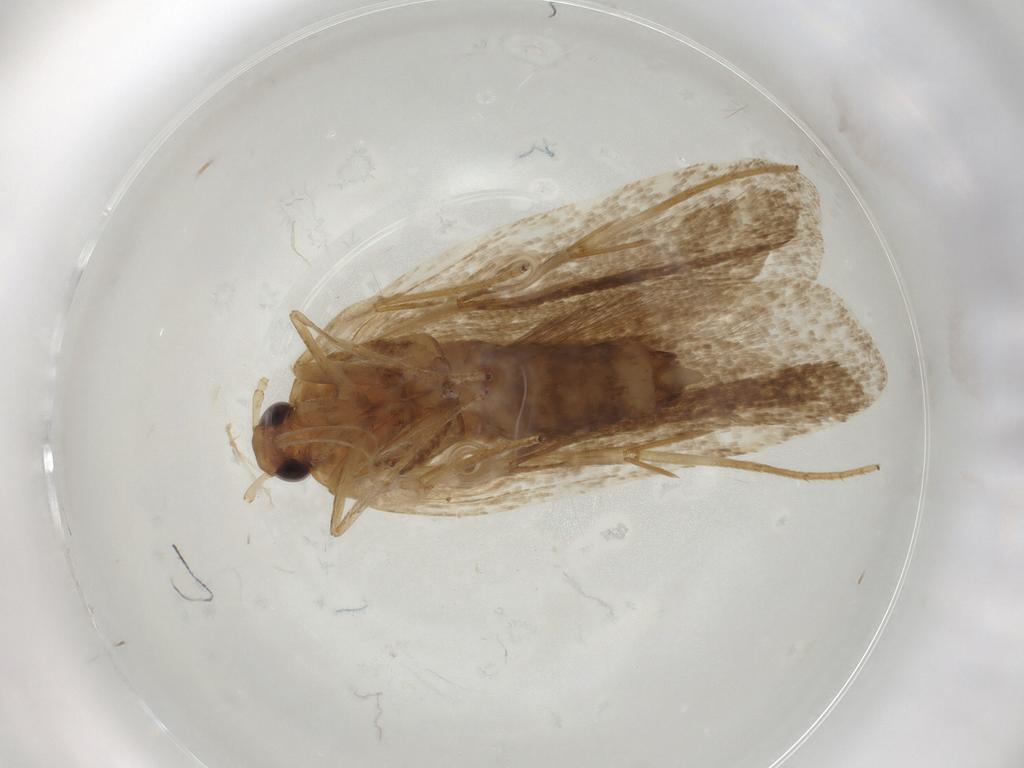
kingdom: Animalia
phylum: Arthropoda
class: Insecta
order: Lepidoptera
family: Lecithoceridae
